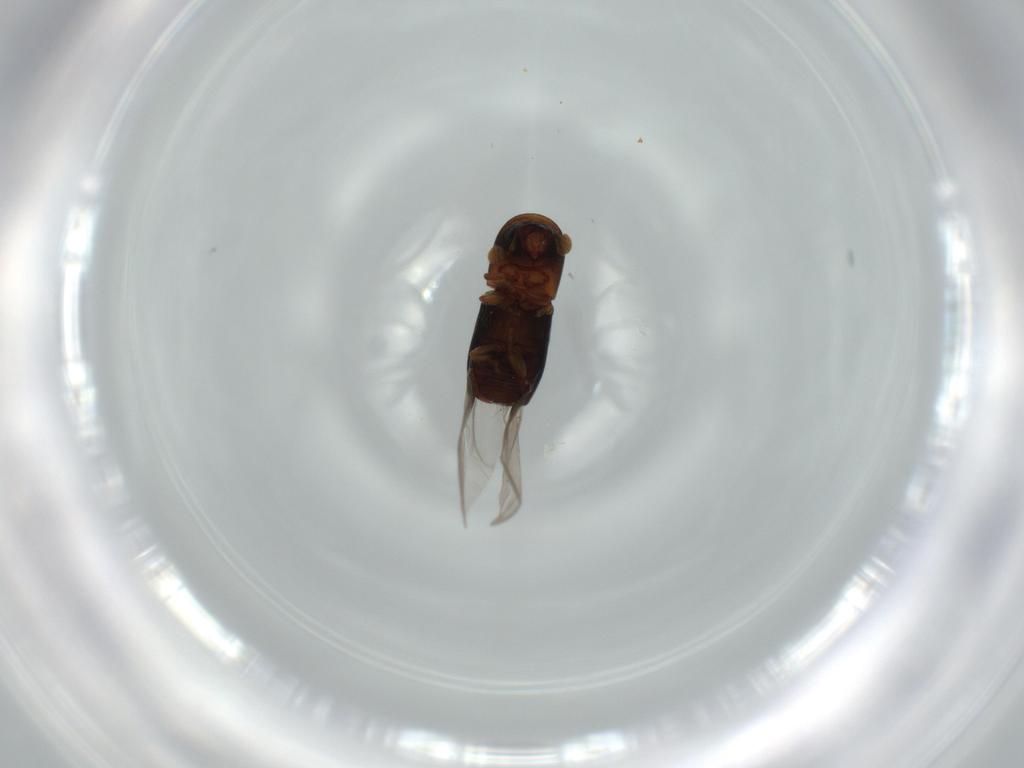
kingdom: Animalia
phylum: Arthropoda
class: Insecta
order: Coleoptera
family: Curculionidae
